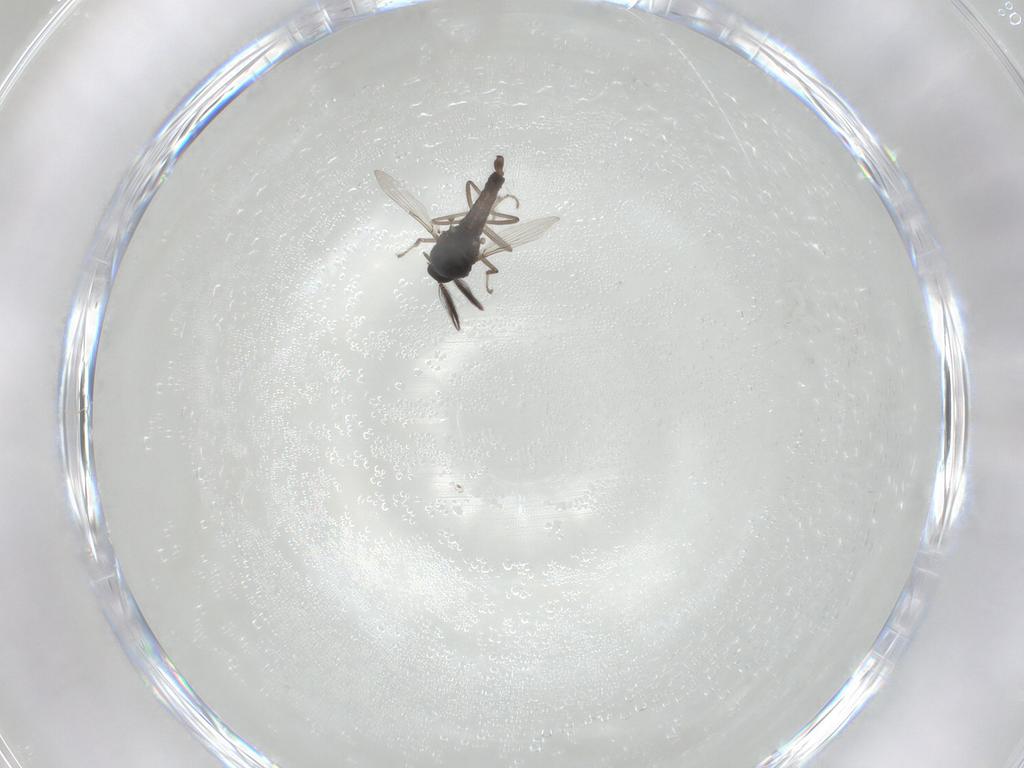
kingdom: Animalia
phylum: Arthropoda
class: Insecta
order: Diptera
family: Ceratopogonidae
